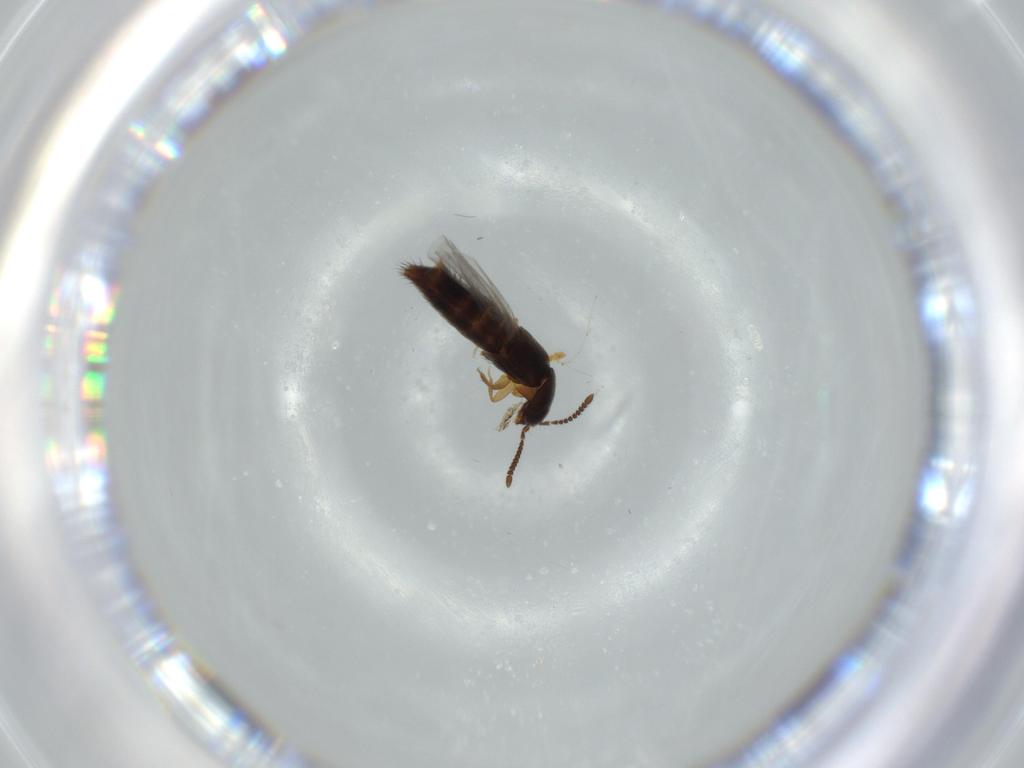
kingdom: Animalia
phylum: Arthropoda
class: Insecta
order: Coleoptera
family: Staphylinidae
